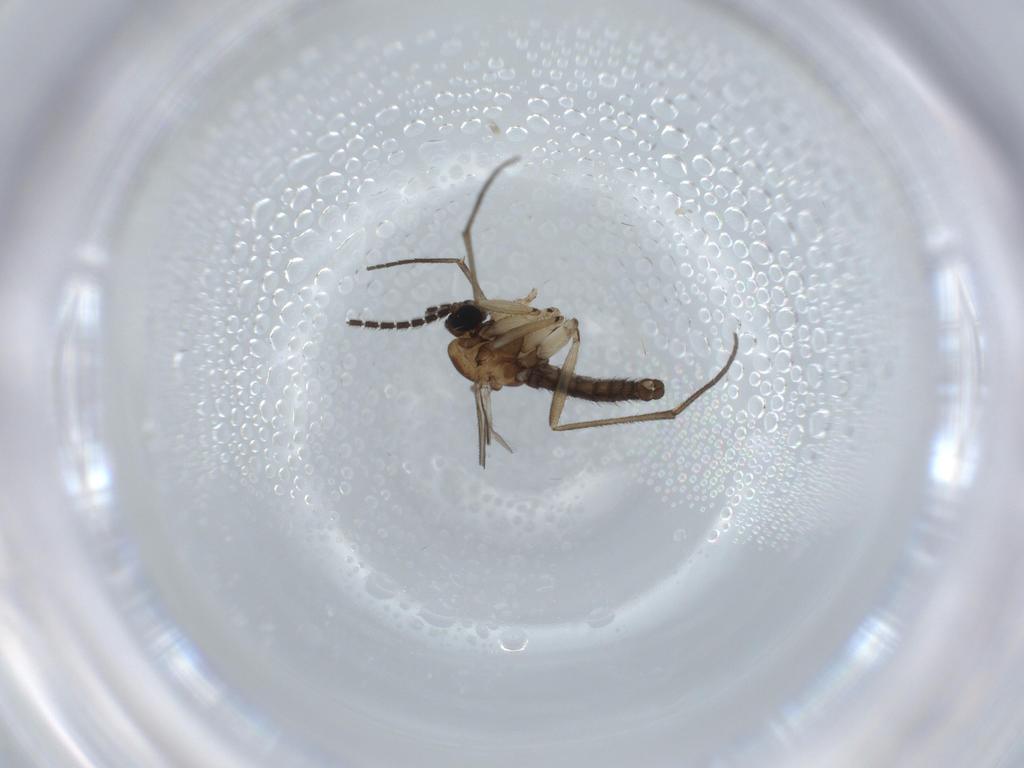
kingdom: Animalia
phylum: Arthropoda
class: Insecta
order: Diptera
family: Sciaridae
